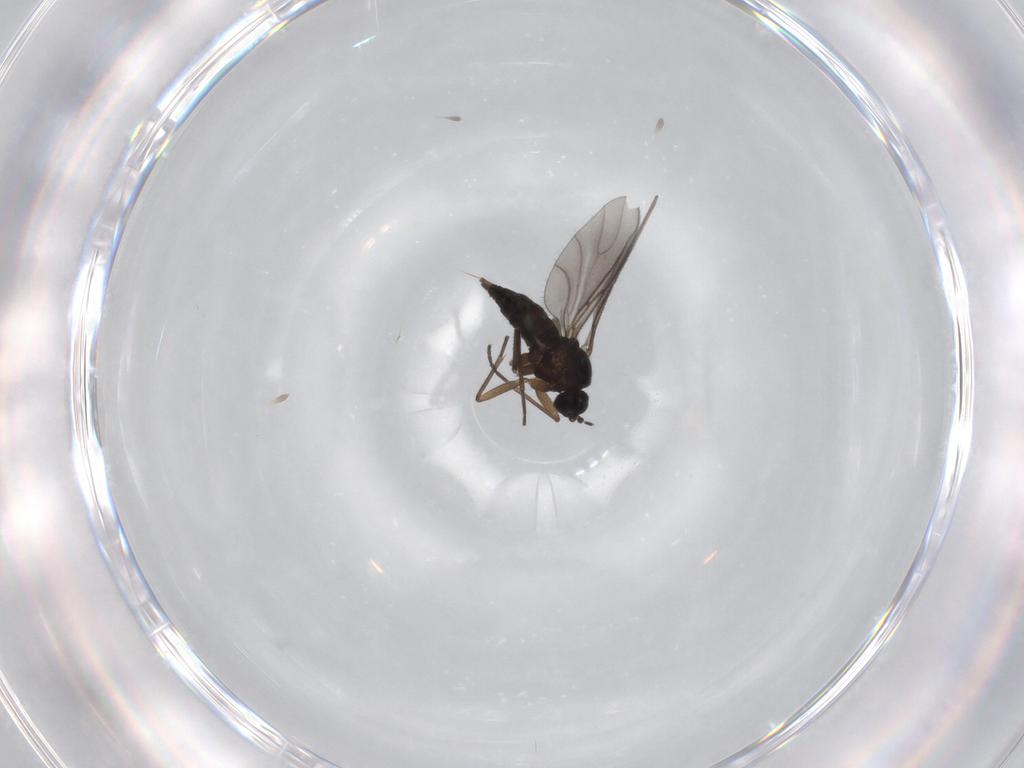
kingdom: Animalia
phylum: Arthropoda
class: Insecta
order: Diptera
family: Sciaridae
